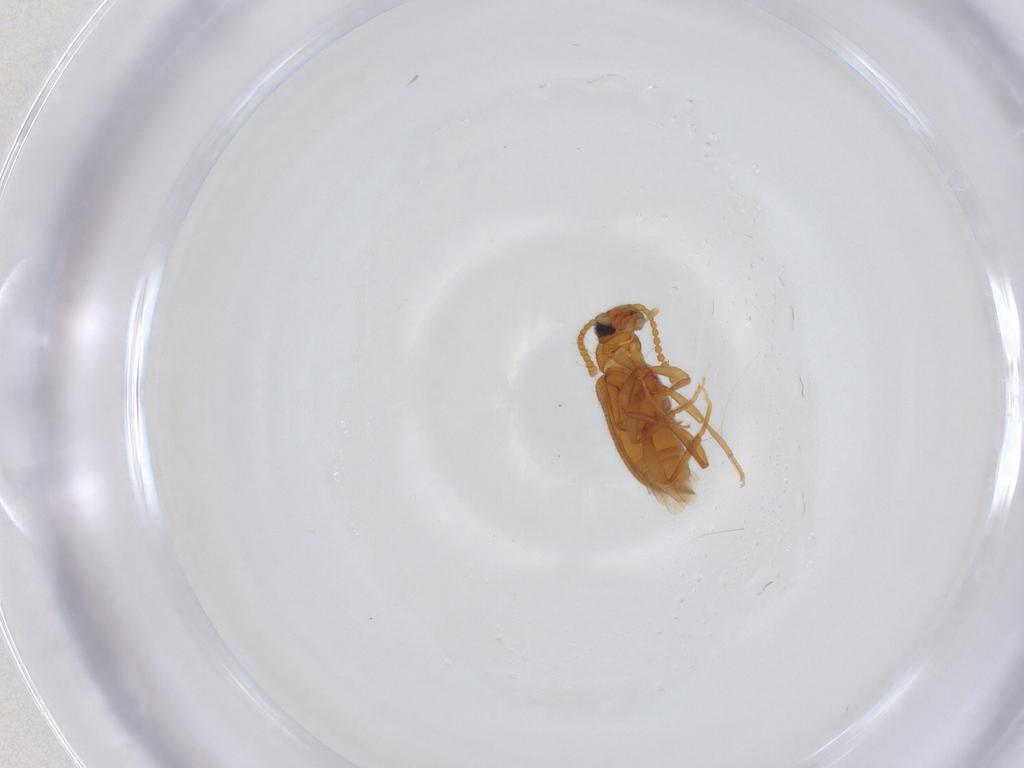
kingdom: Animalia
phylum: Arthropoda
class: Insecta
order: Coleoptera
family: Aderidae
